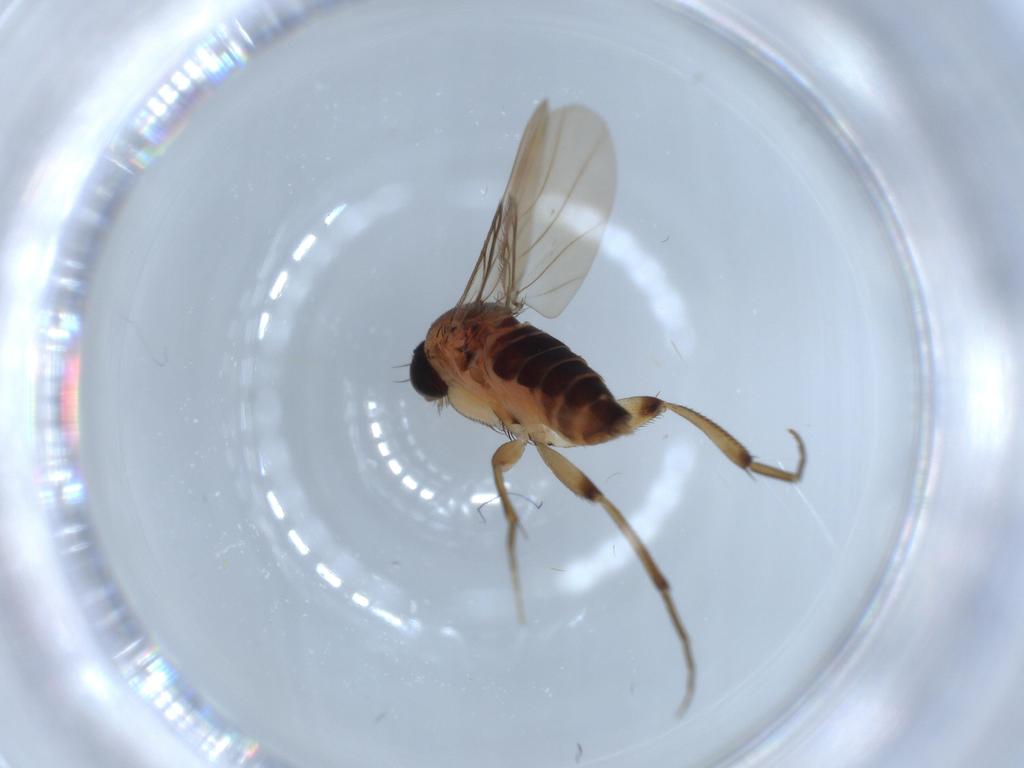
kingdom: Animalia
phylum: Arthropoda
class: Insecta
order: Diptera
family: Phoridae
